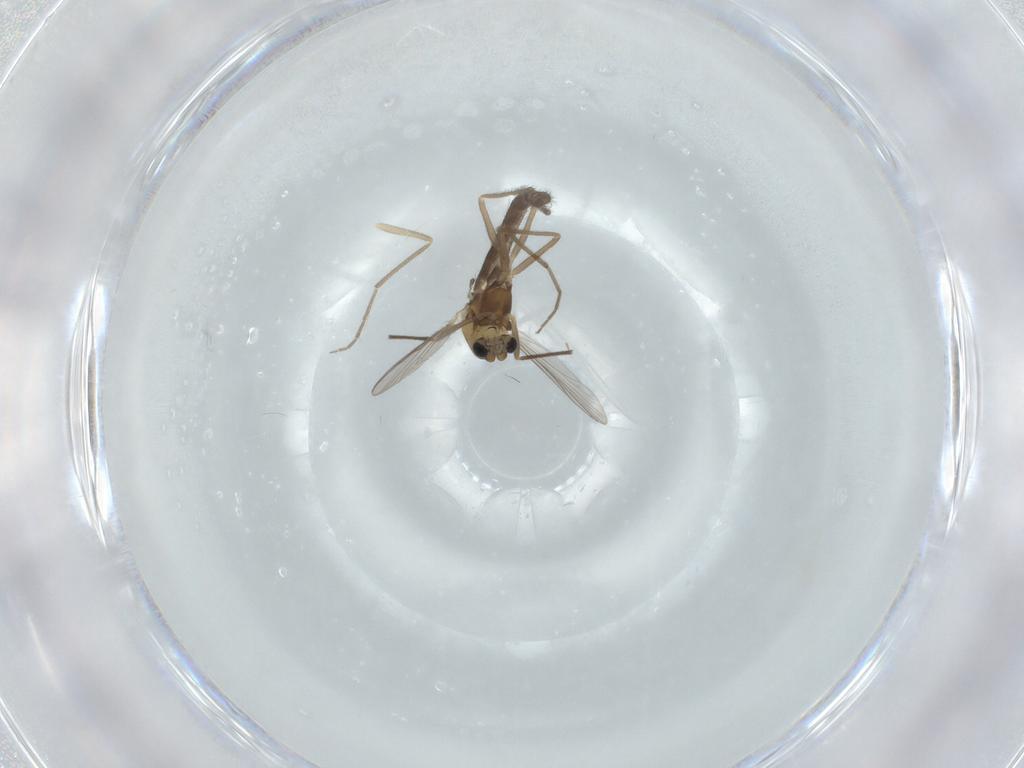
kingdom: Animalia
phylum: Arthropoda
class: Insecta
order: Diptera
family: Chironomidae
